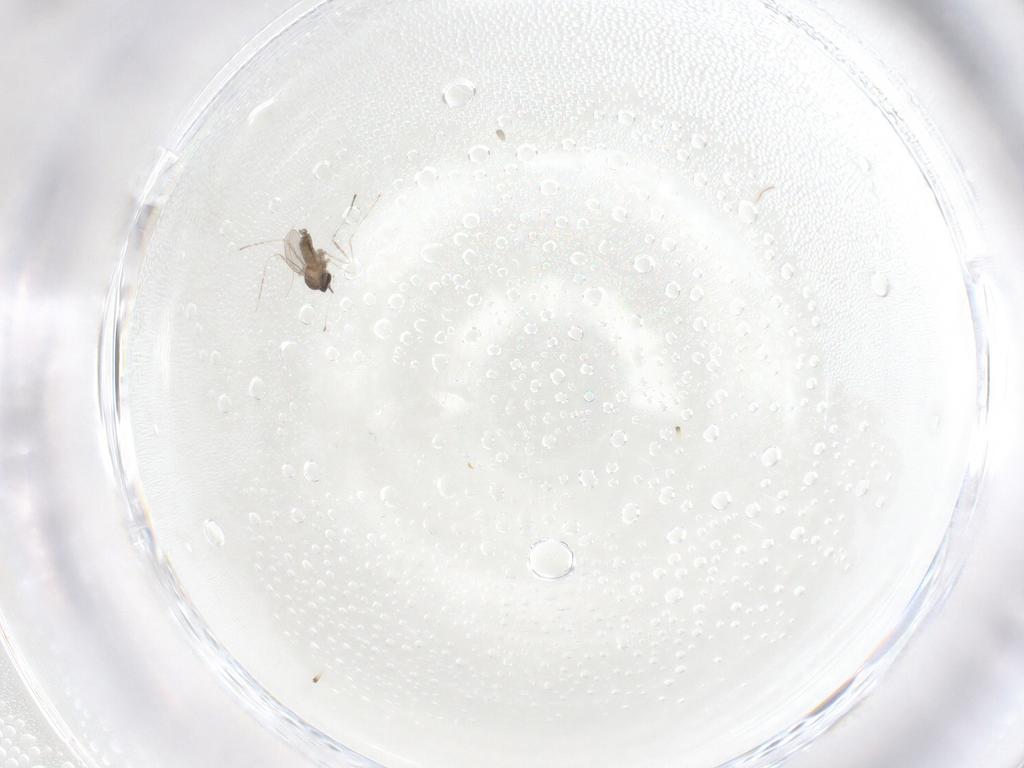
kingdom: Animalia
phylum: Arthropoda
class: Insecta
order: Diptera
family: Cecidomyiidae
